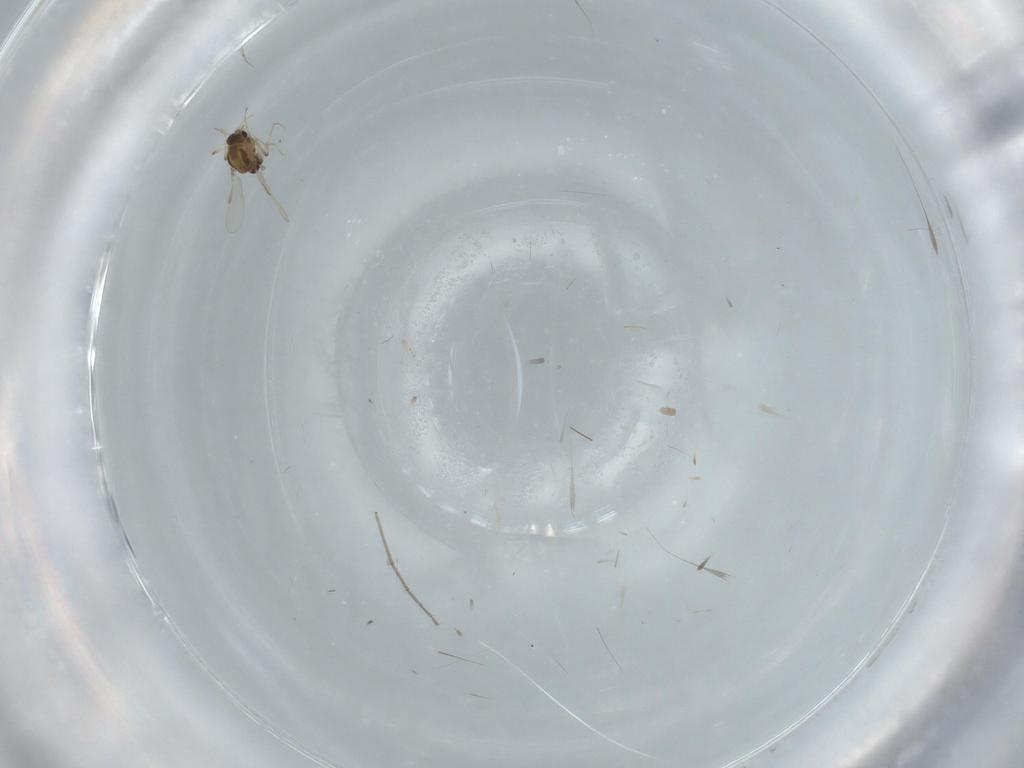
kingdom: Animalia
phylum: Arthropoda
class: Insecta
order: Diptera
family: Chironomidae
